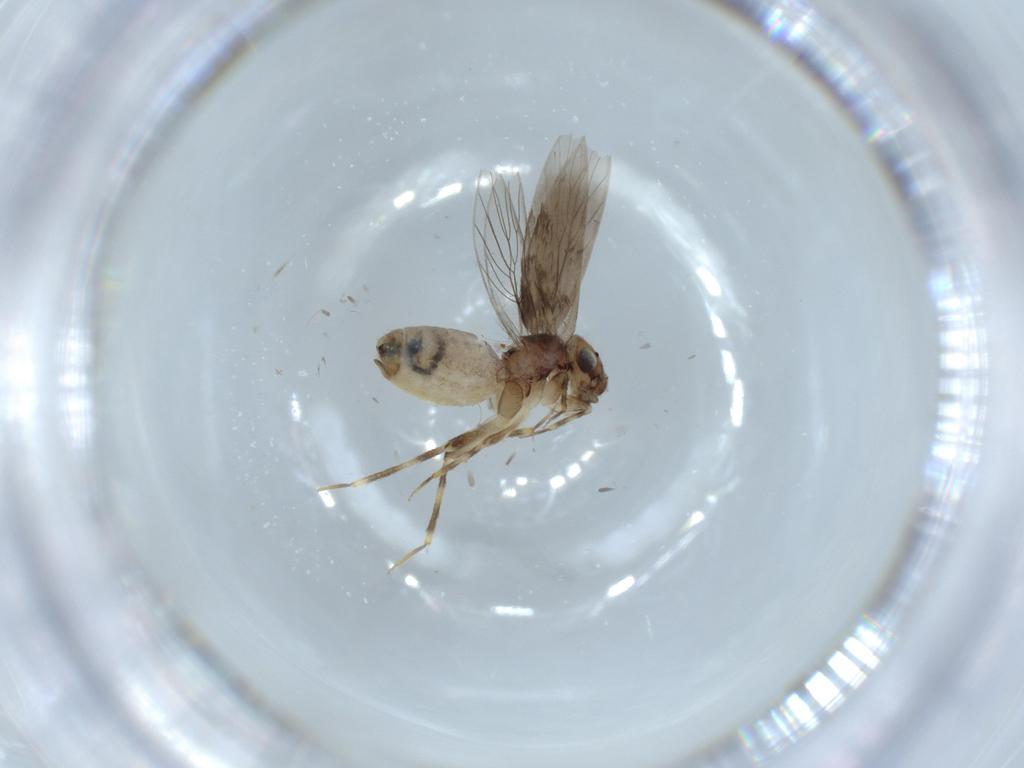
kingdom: Animalia
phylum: Arthropoda
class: Insecta
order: Psocodea
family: Lepidopsocidae
